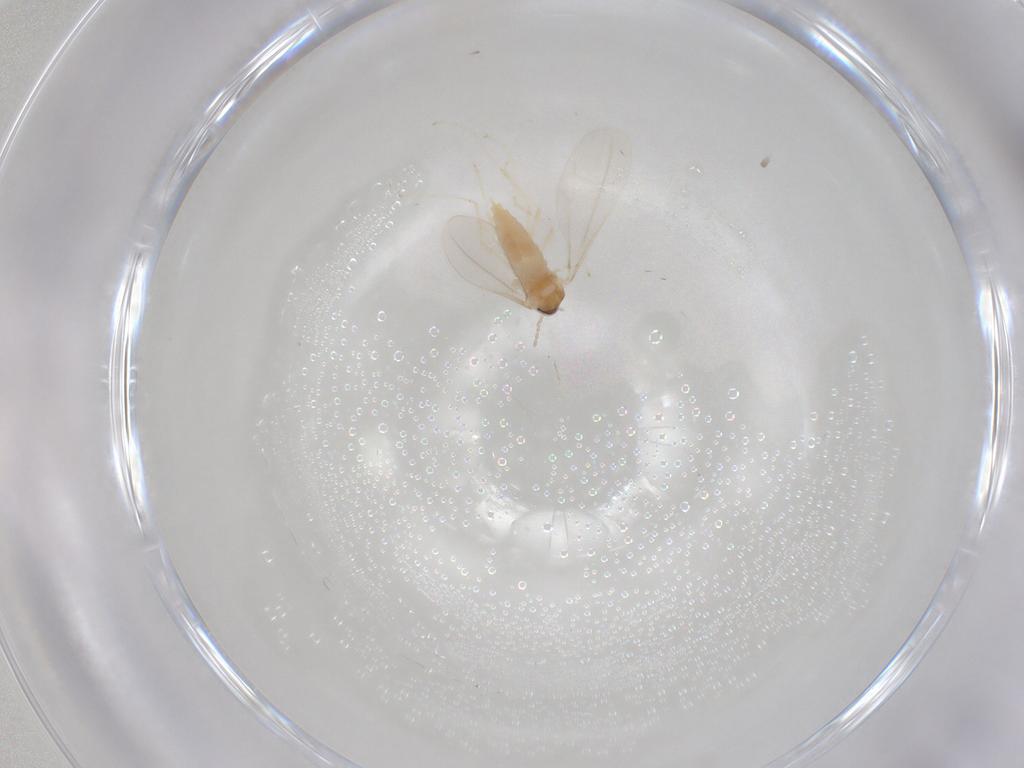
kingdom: Animalia
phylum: Arthropoda
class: Insecta
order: Diptera
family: Cecidomyiidae
